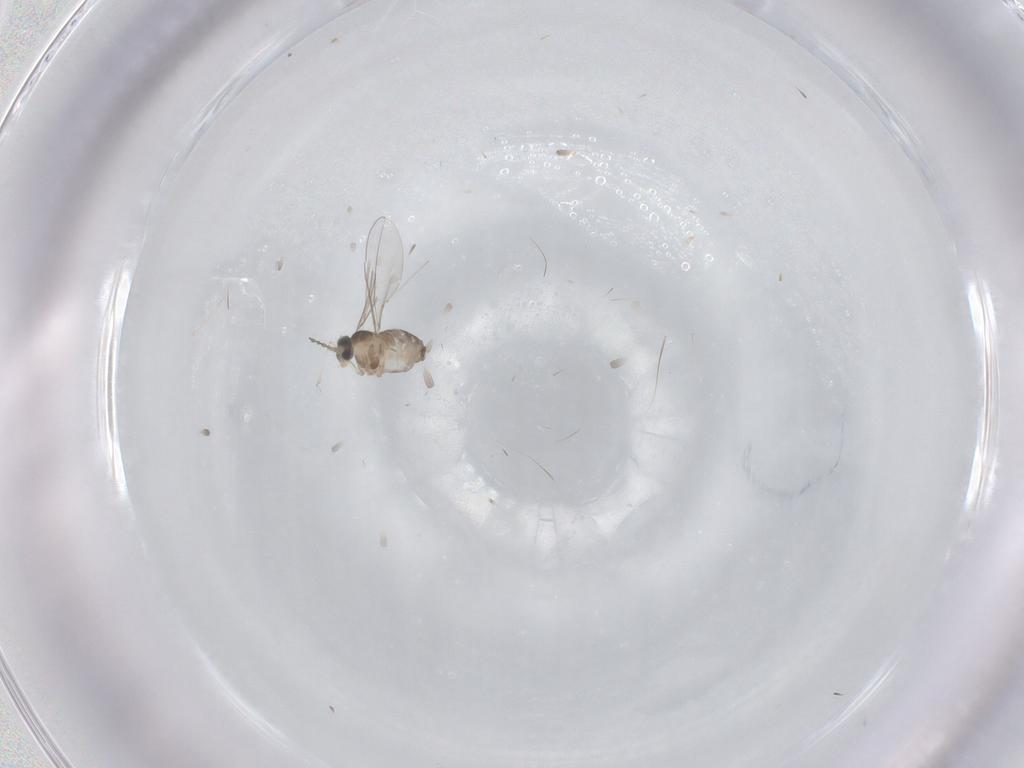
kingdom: Animalia
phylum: Arthropoda
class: Insecta
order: Diptera
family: Cecidomyiidae
